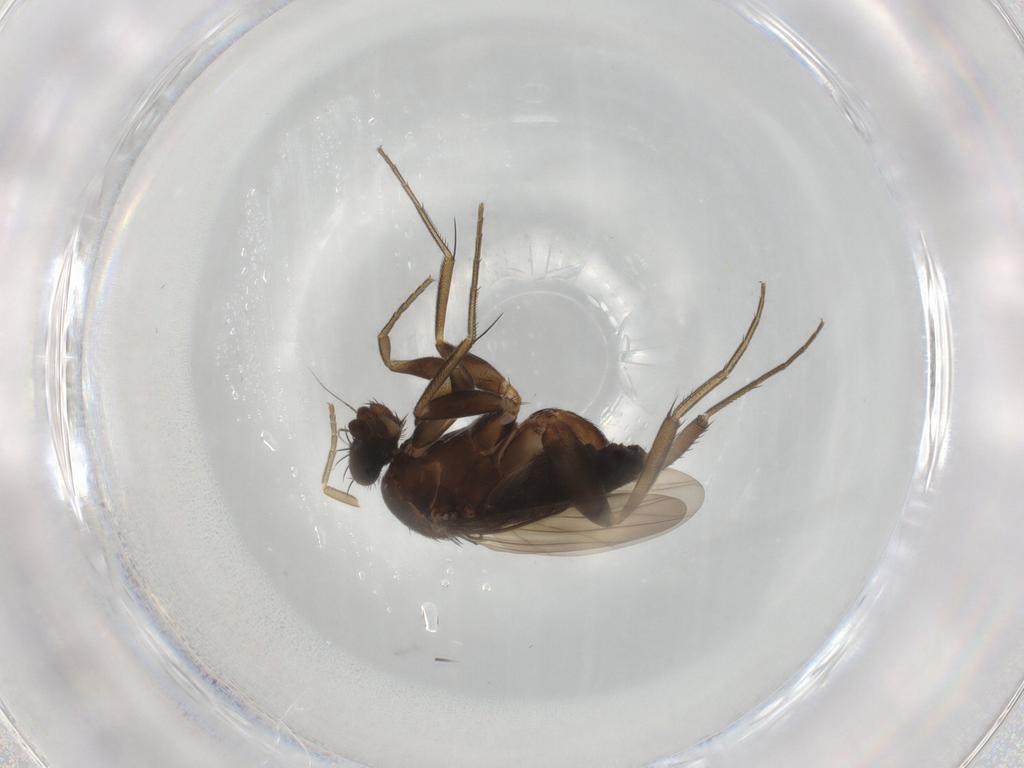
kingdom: Animalia
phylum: Arthropoda
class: Insecta
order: Diptera
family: Phoridae
